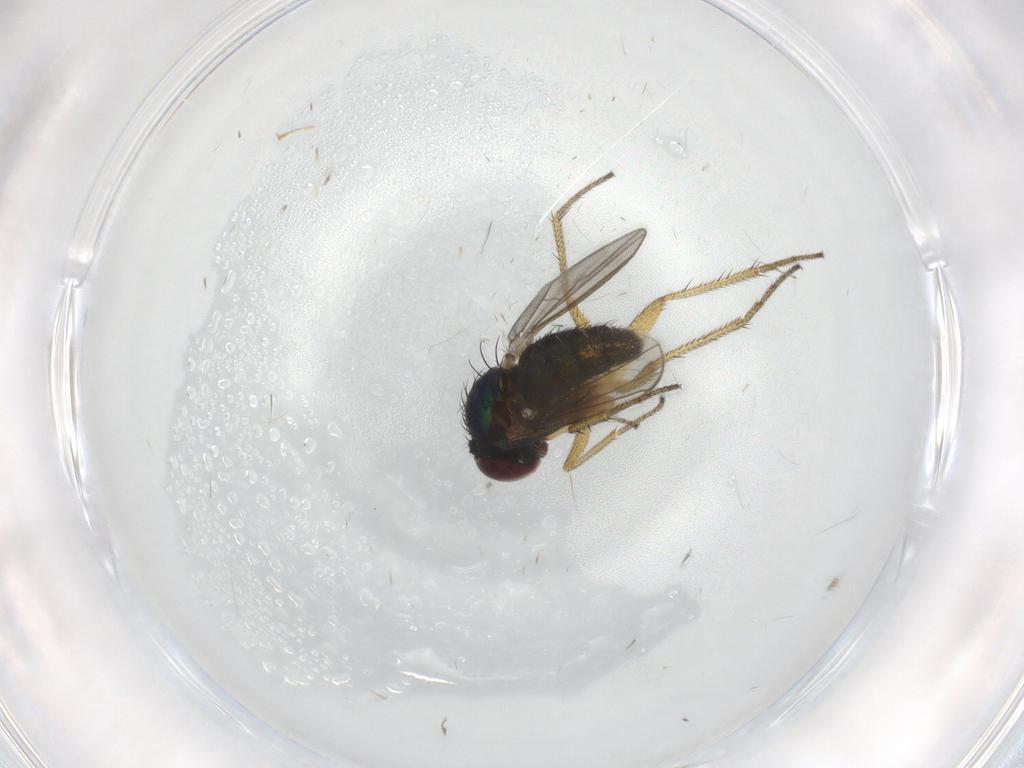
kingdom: Animalia
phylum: Arthropoda
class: Insecta
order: Diptera
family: Dolichopodidae
